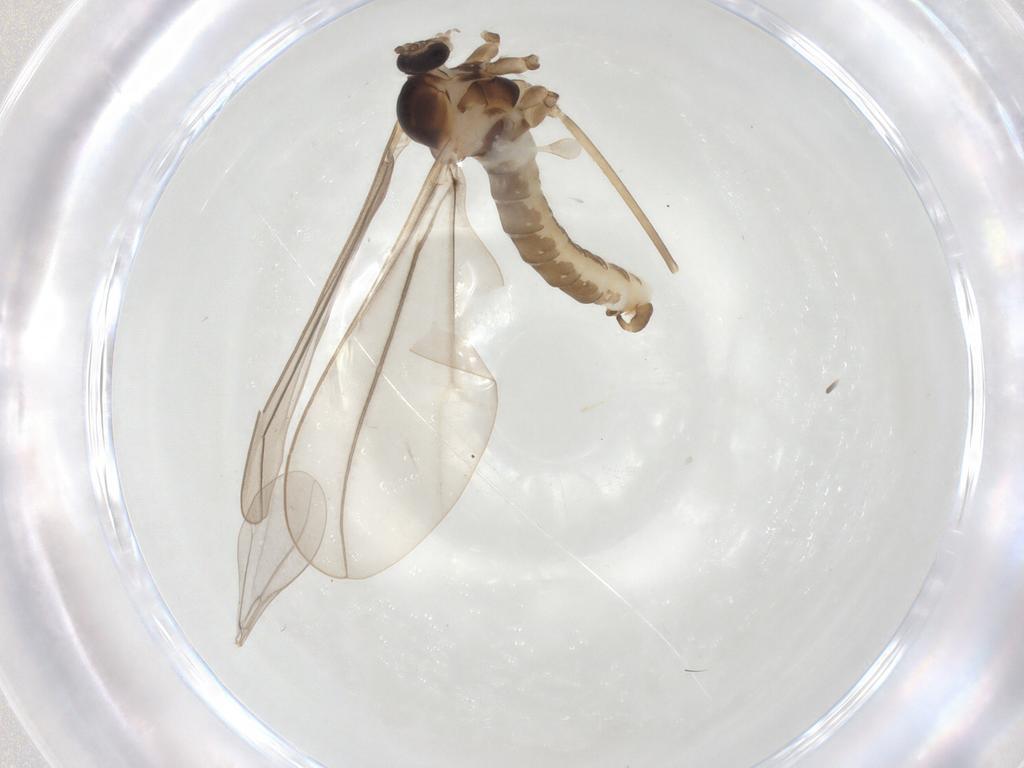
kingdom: Animalia
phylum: Arthropoda
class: Insecta
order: Diptera
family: Cecidomyiidae
